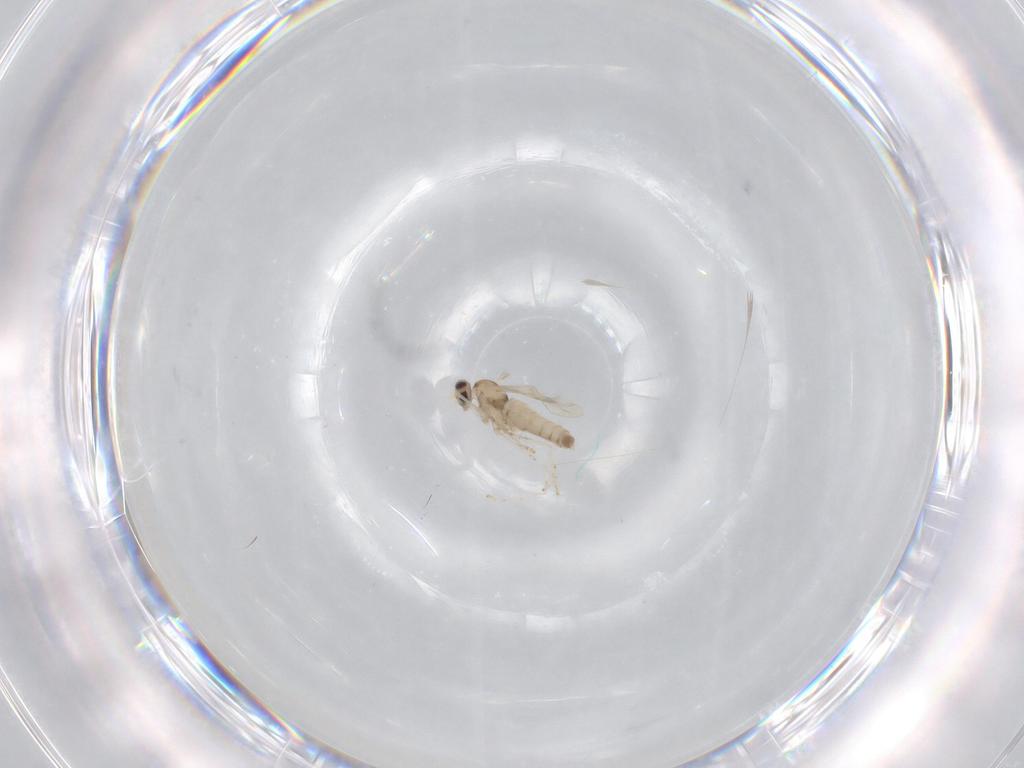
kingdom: Animalia
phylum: Arthropoda
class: Insecta
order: Diptera
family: Cecidomyiidae
